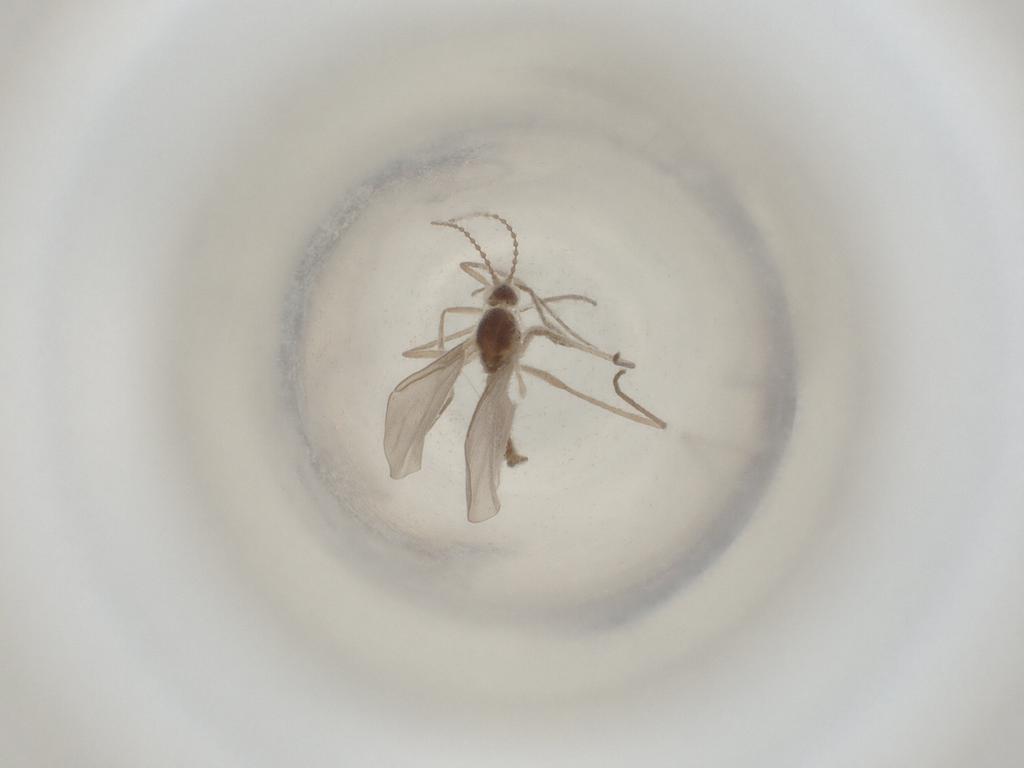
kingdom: Animalia
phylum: Arthropoda
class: Insecta
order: Diptera
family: Cecidomyiidae
